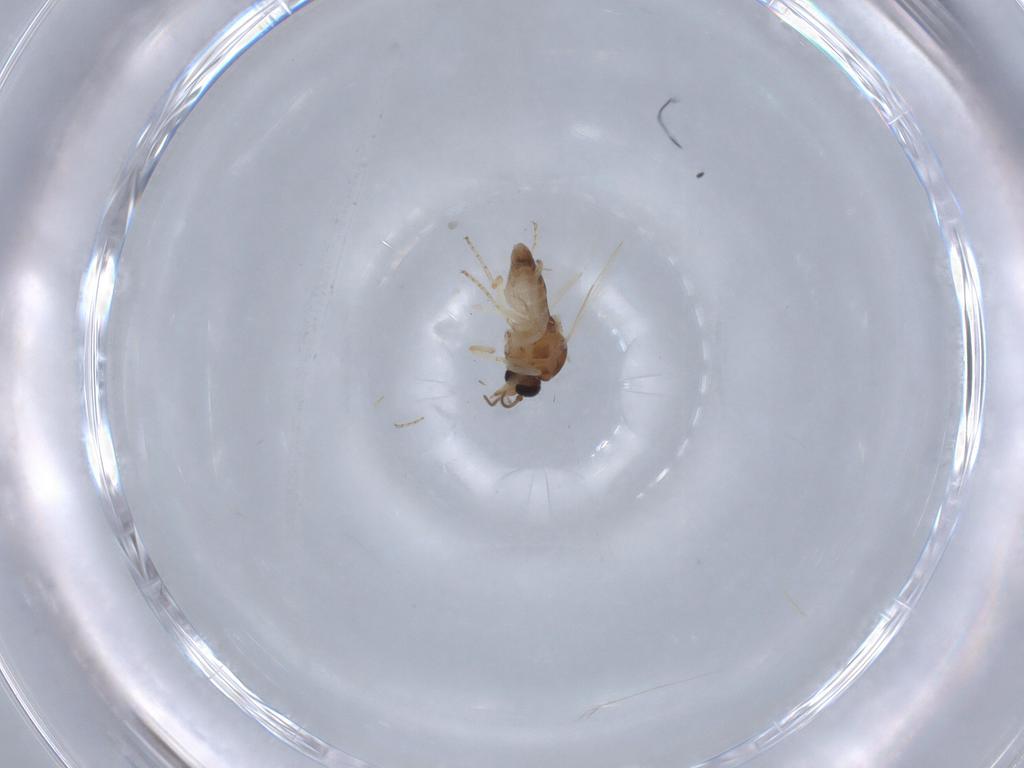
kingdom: Animalia
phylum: Arthropoda
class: Insecta
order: Diptera
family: Ceratopogonidae
